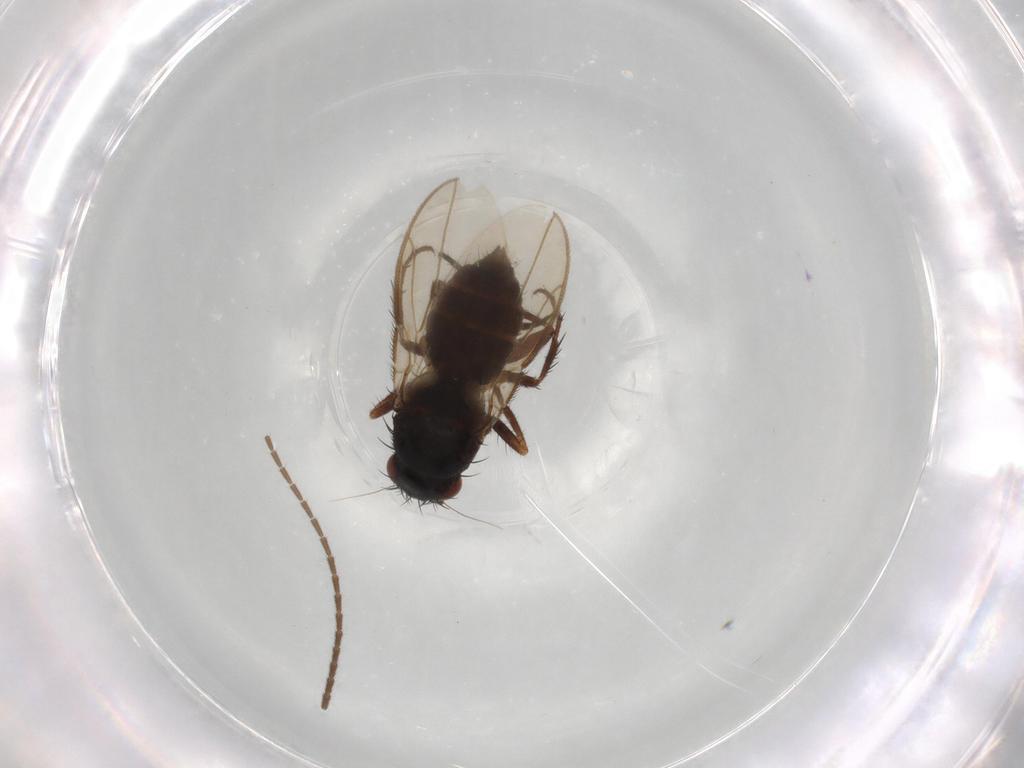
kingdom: Animalia
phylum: Arthropoda
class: Insecta
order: Diptera
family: Sphaeroceridae
